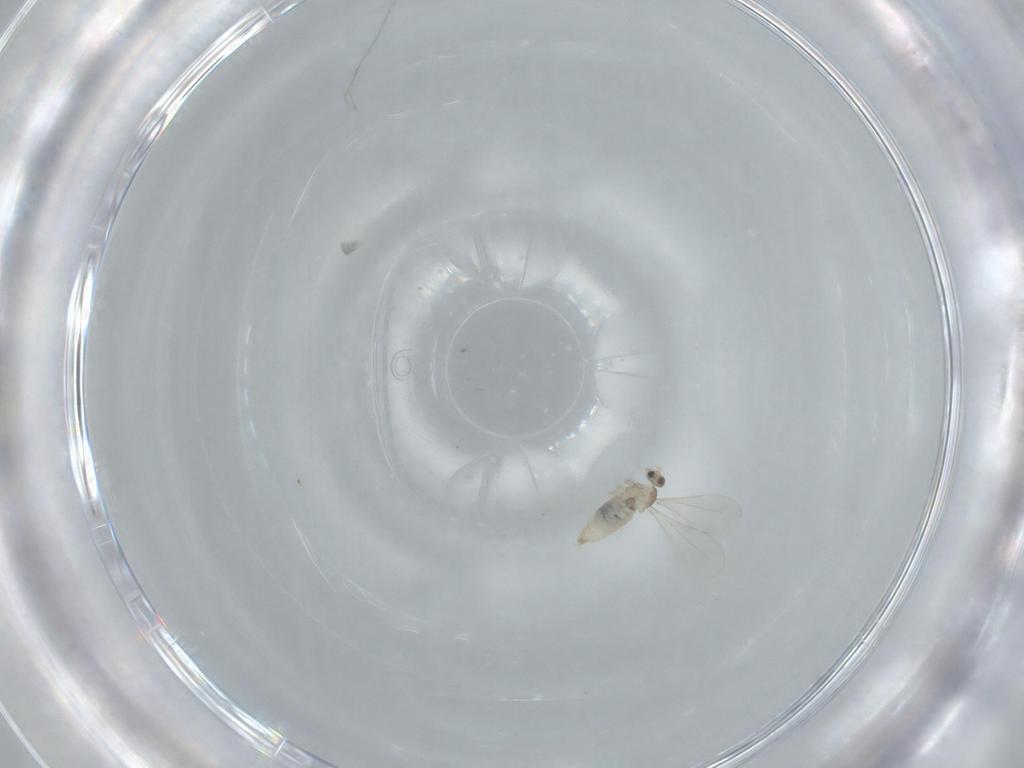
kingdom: Animalia
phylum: Arthropoda
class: Insecta
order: Diptera
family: Cecidomyiidae
